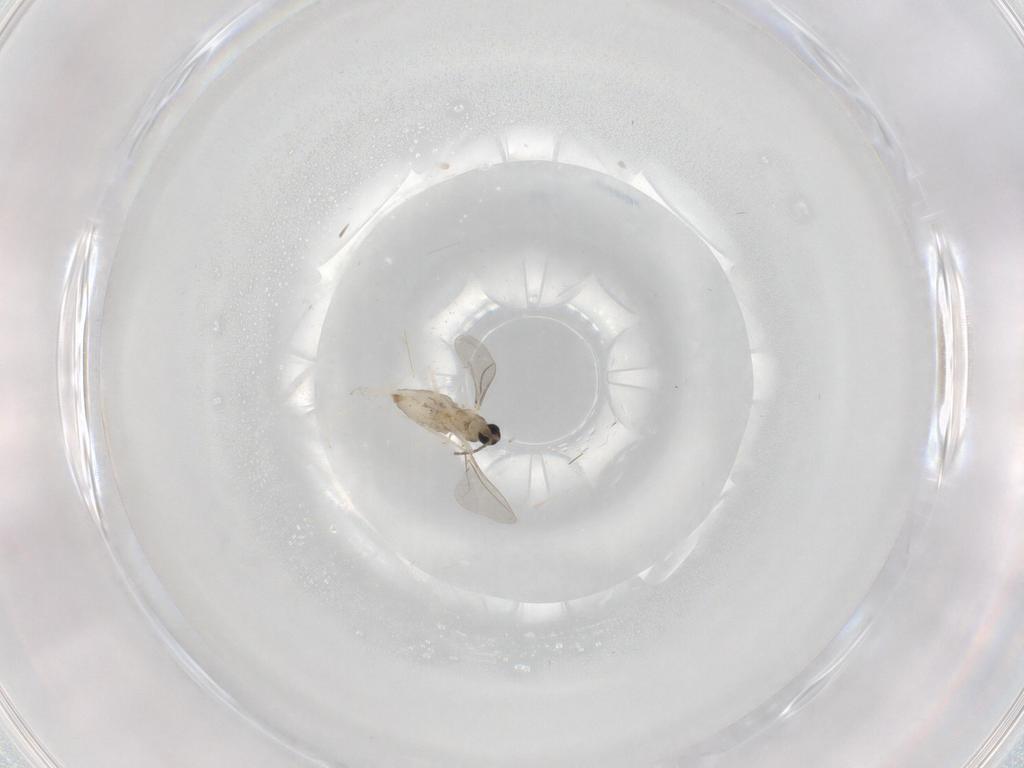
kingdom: Animalia
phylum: Arthropoda
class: Insecta
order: Diptera
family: Cecidomyiidae
